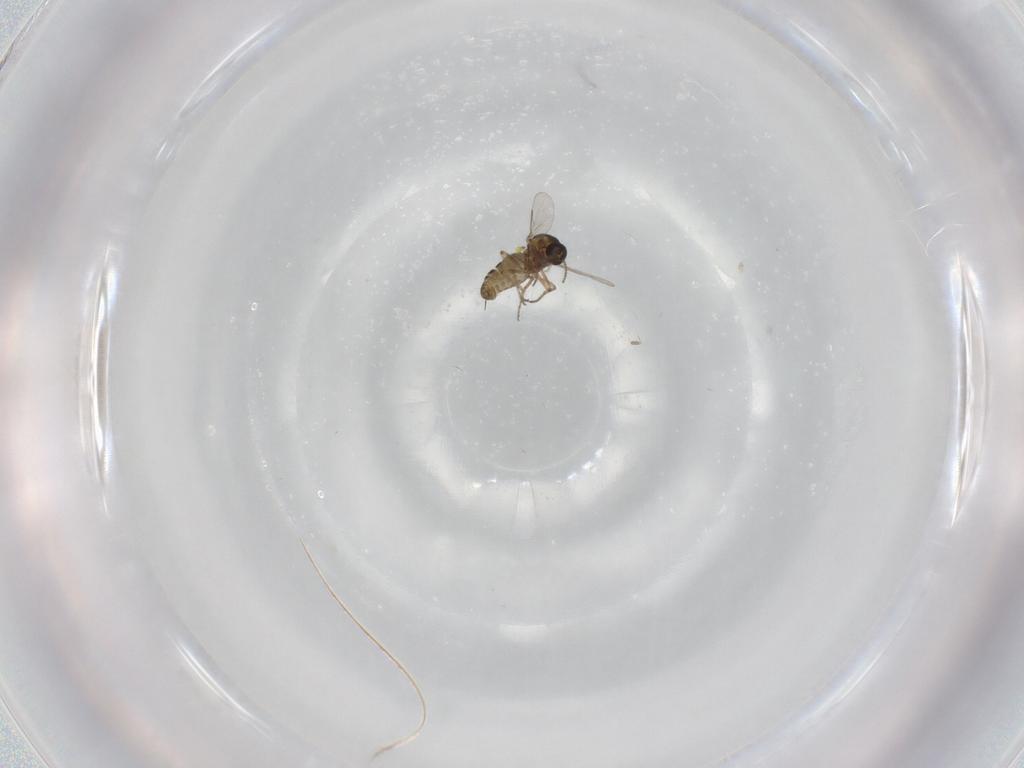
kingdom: Animalia
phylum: Arthropoda
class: Insecta
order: Diptera
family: Ceratopogonidae
